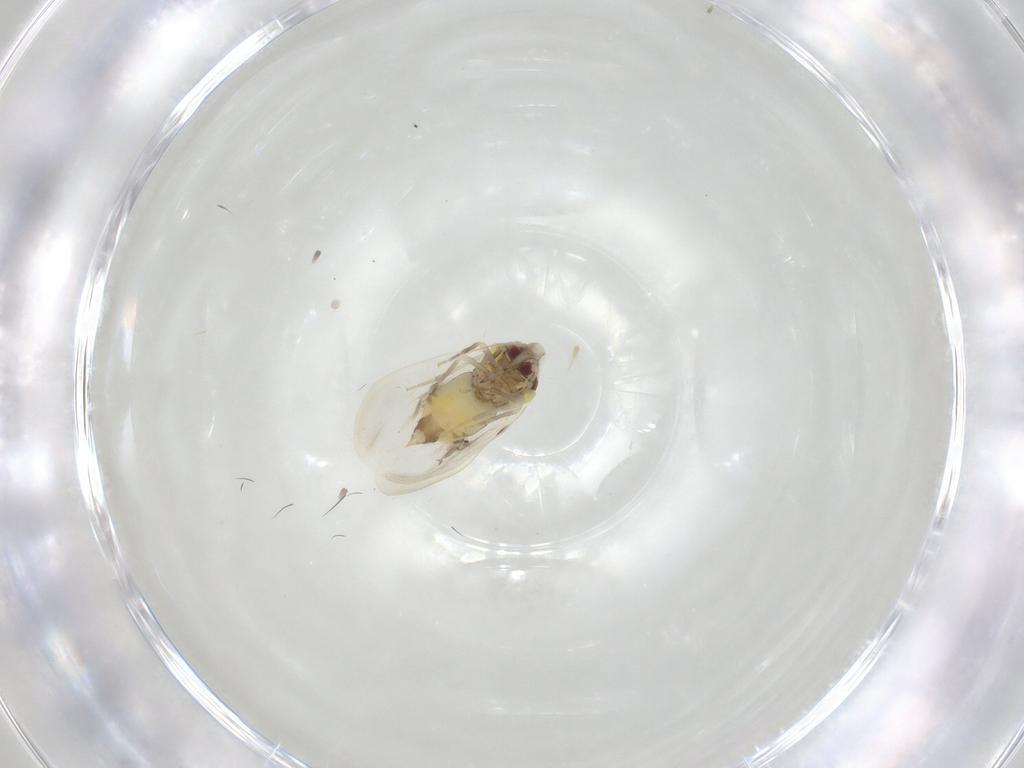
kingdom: Animalia
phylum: Arthropoda
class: Insecta
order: Hemiptera
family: Aleyrodidae
